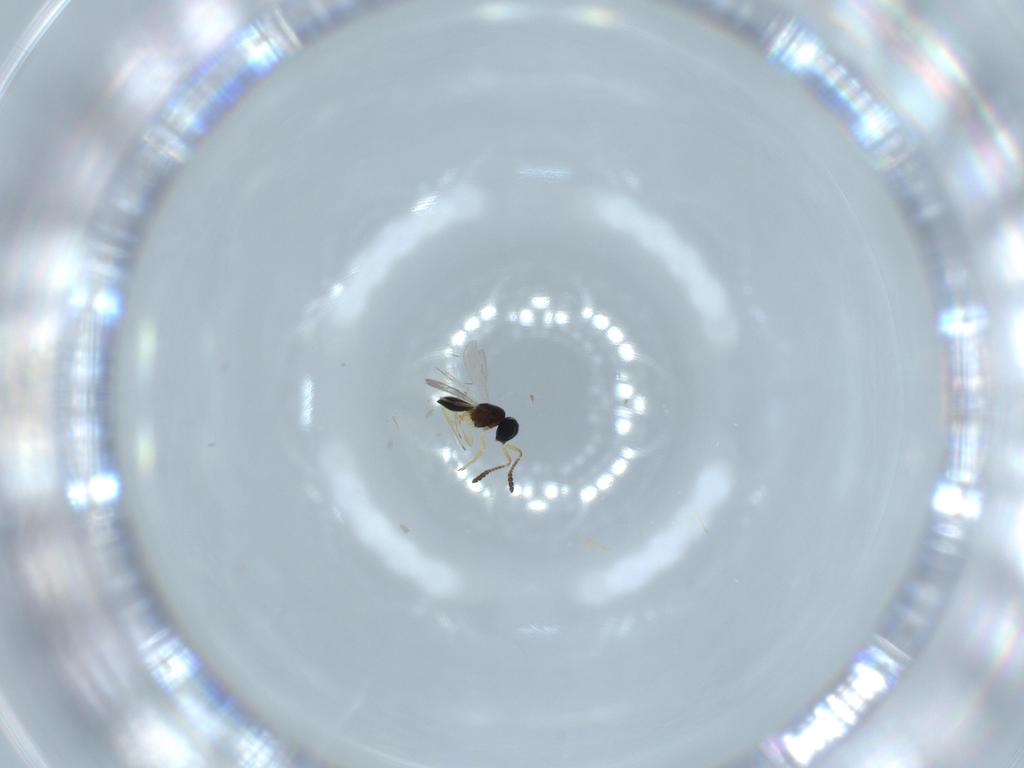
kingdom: Animalia
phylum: Arthropoda
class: Insecta
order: Hymenoptera
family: Scelionidae
